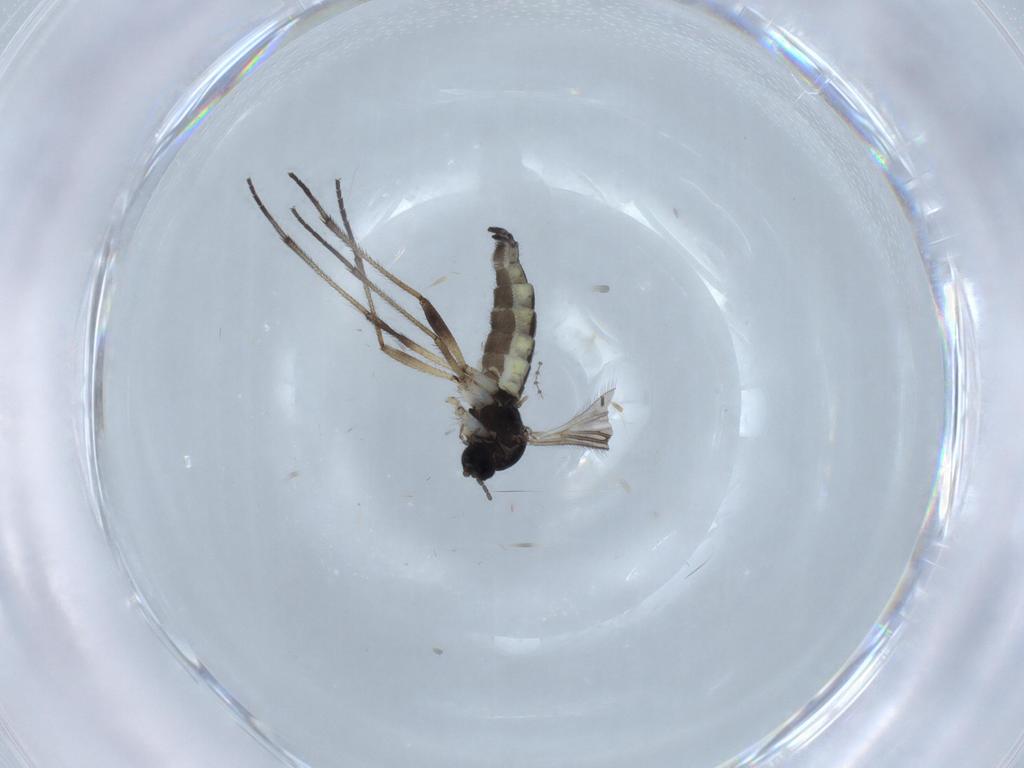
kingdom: Animalia
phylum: Arthropoda
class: Insecta
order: Diptera
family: Sciaridae
